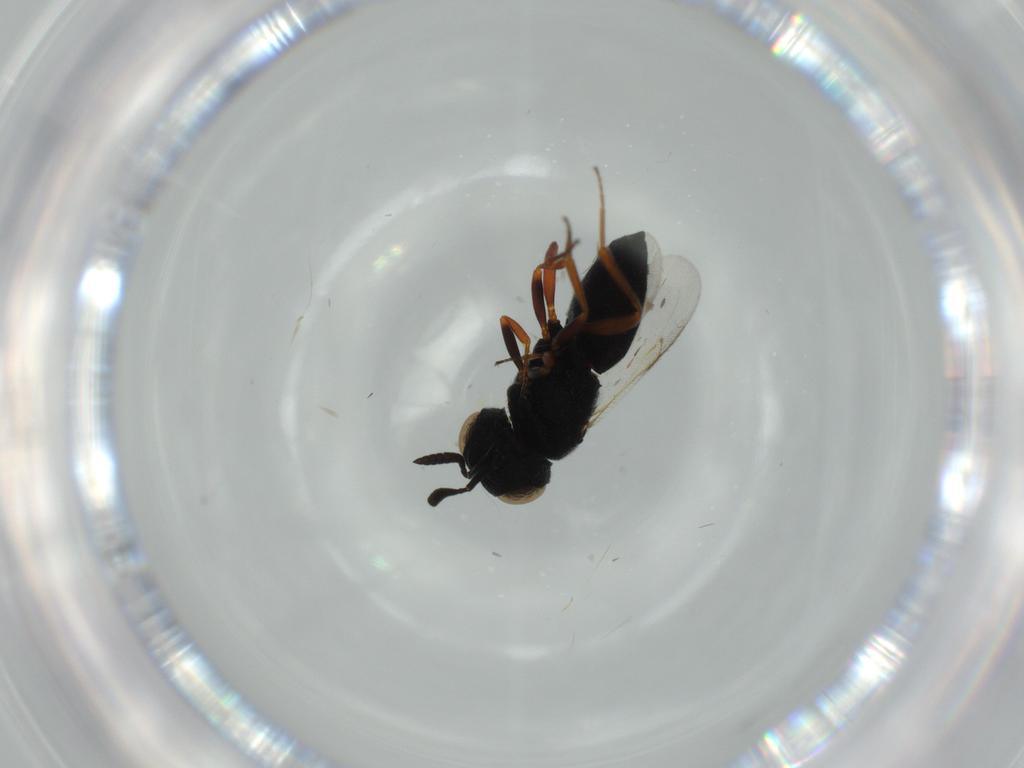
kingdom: Animalia
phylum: Arthropoda
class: Insecta
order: Hymenoptera
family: Scelionidae
